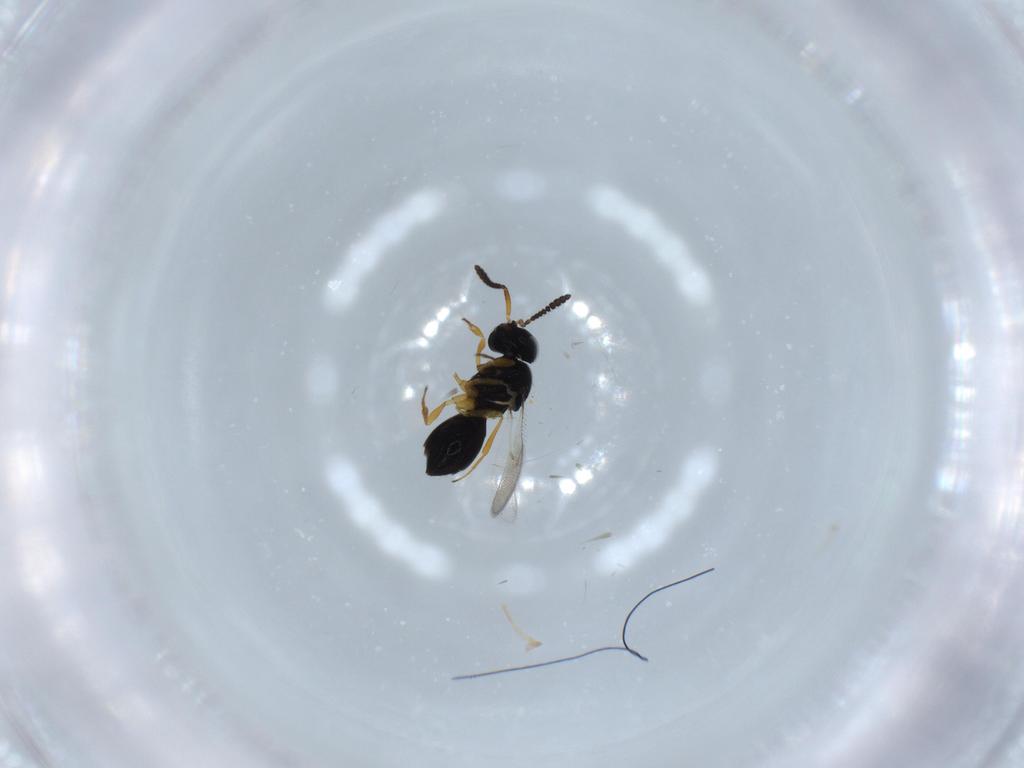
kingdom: Animalia
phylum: Arthropoda
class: Insecta
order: Hymenoptera
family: Scelionidae
